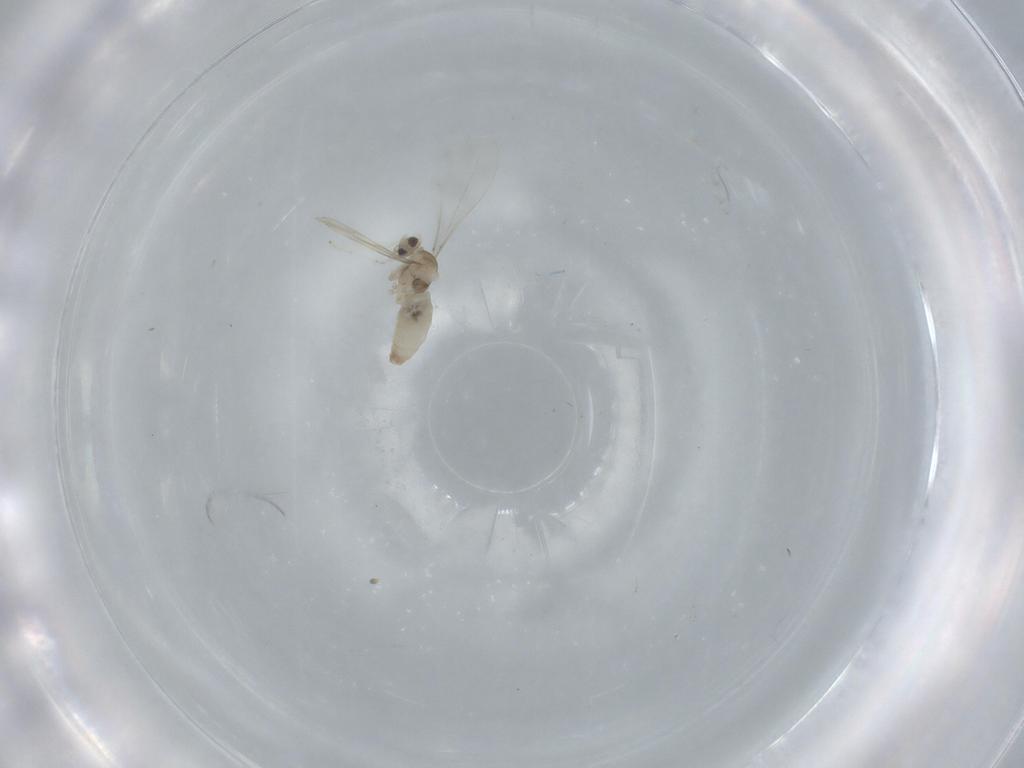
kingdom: Animalia
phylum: Arthropoda
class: Insecta
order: Diptera
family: Cecidomyiidae
